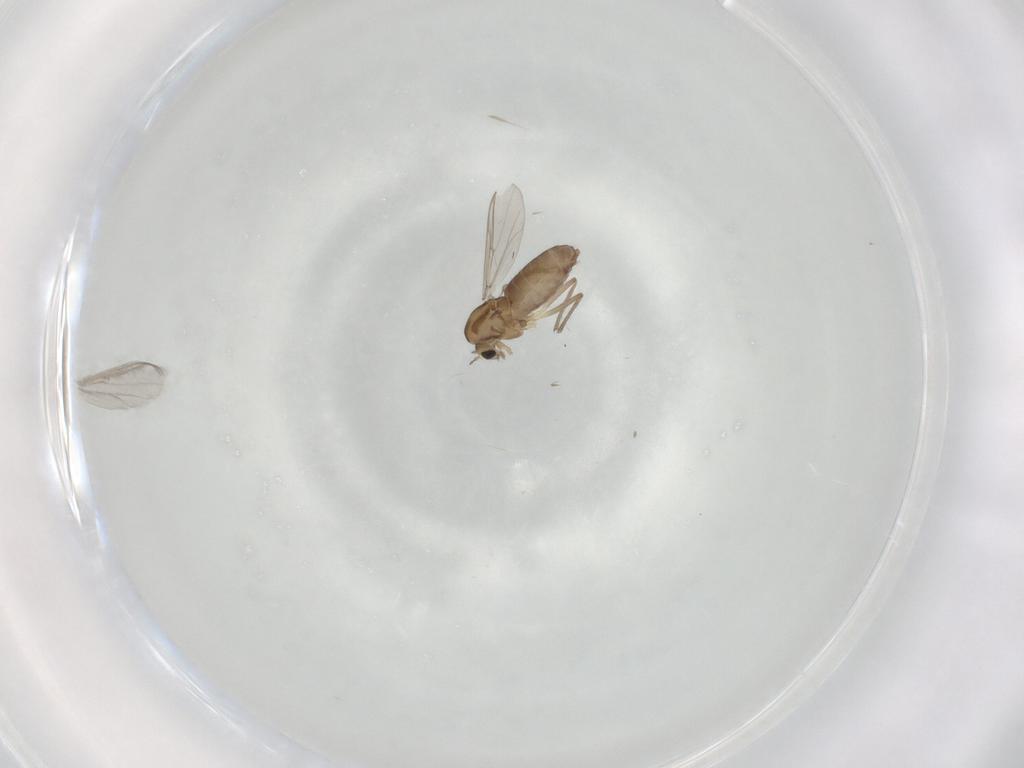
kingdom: Animalia
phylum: Arthropoda
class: Insecta
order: Diptera
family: Chironomidae
